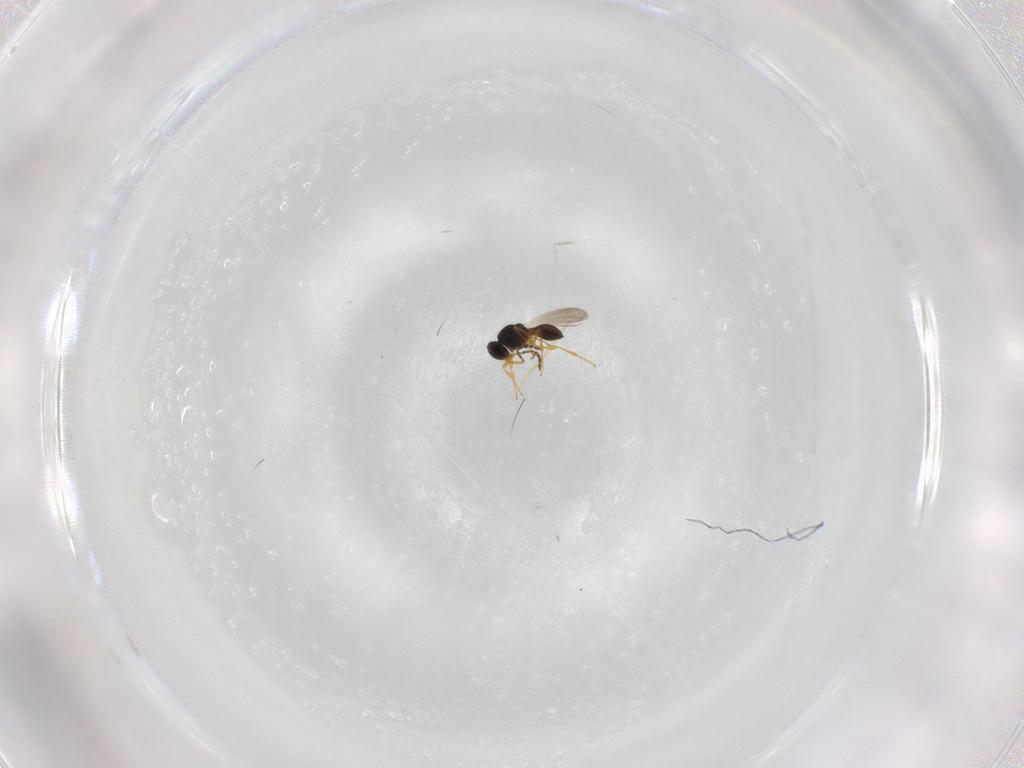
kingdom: Animalia
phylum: Arthropoda
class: Insecta
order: Hymenoptera
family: Platygastridae
